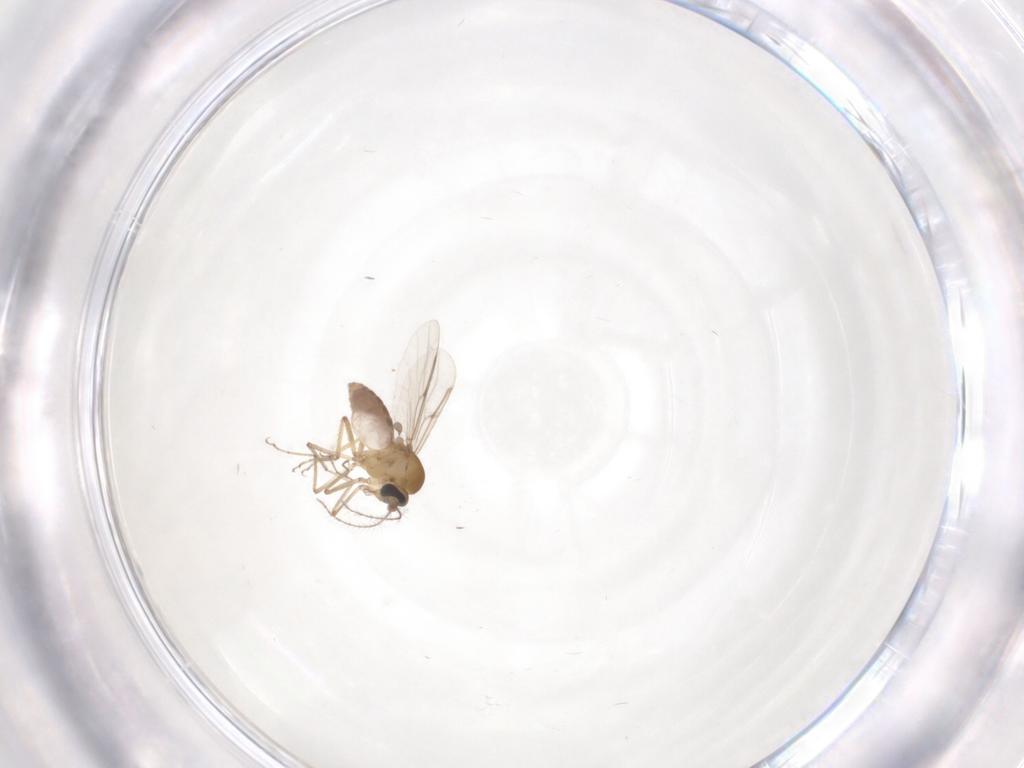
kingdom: Animalia
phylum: Arthropoda
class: Insecta
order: Diptera
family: Ceratopogonidae
